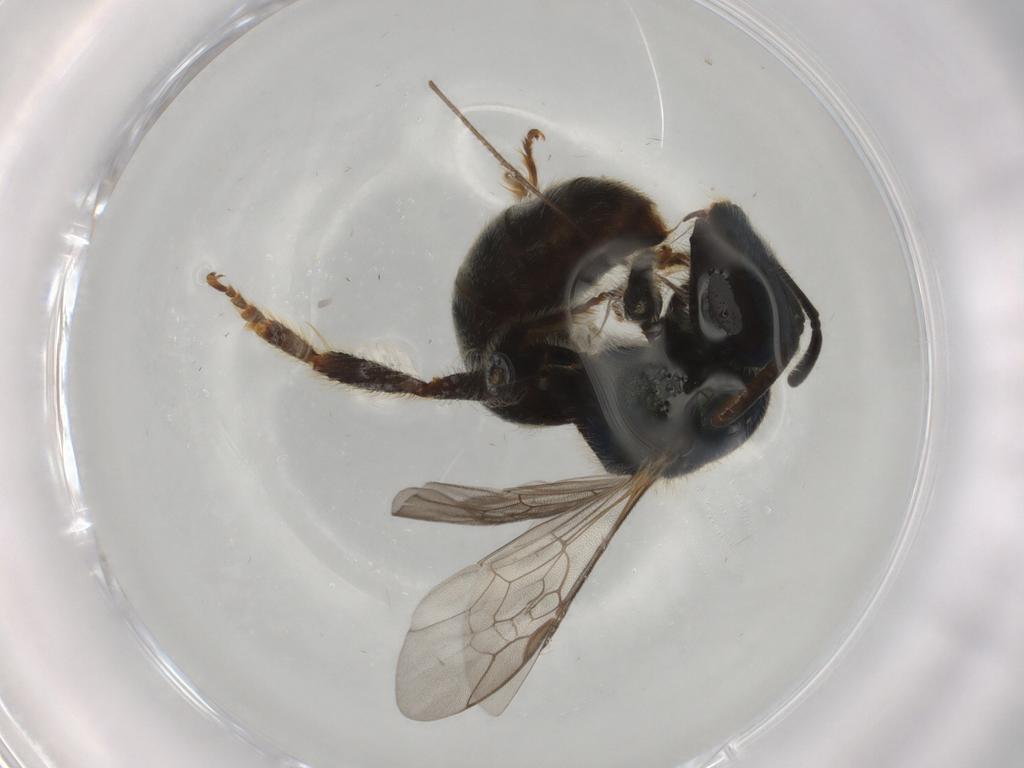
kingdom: Animalia
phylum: Arthropoda
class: Insecta
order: Hymenoptera
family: Halictidae
